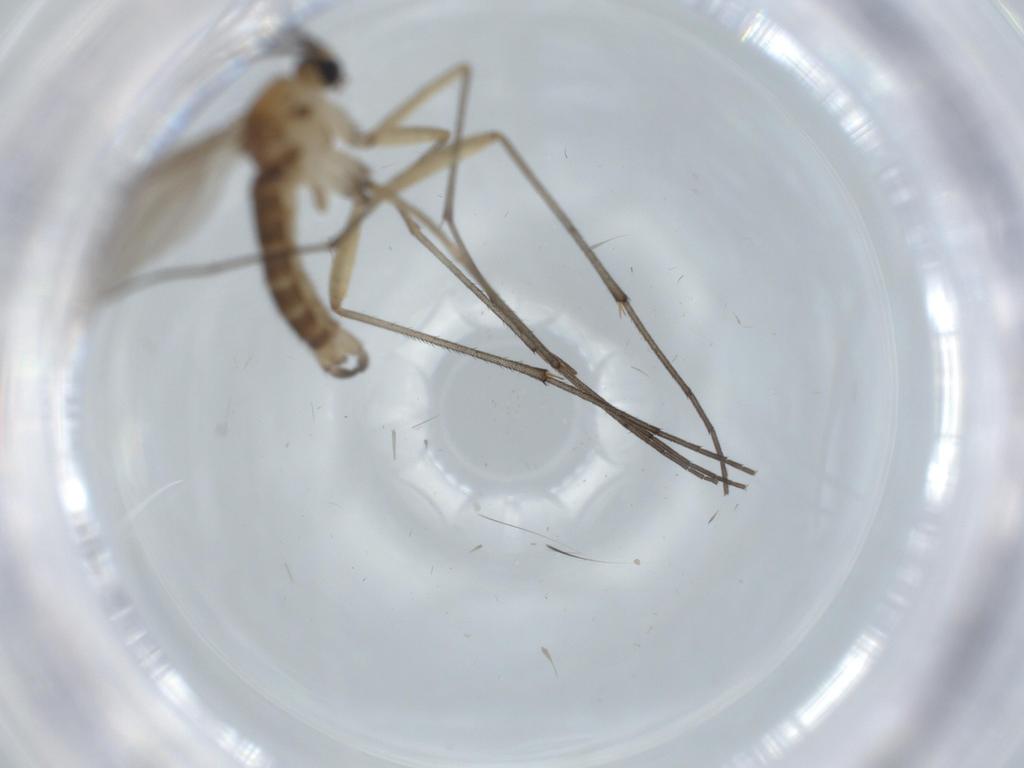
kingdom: Animalia
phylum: Arthropoda
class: Insecta
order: Diptera
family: Sciaridae
